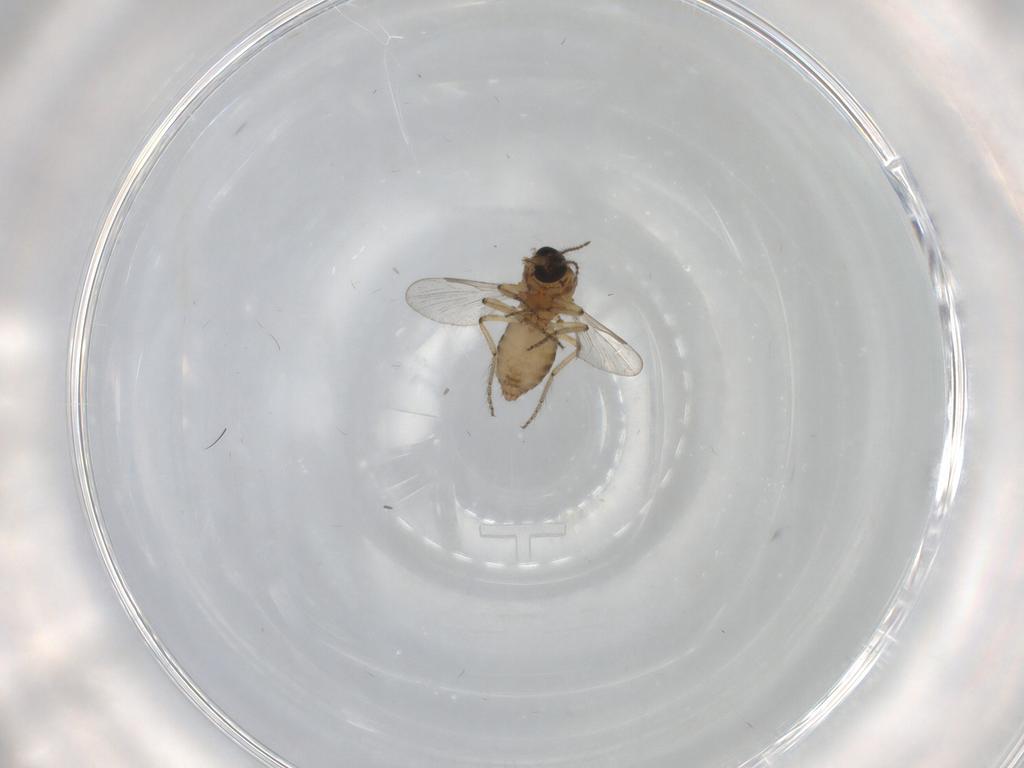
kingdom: Animalia
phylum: Arthropoda
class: Insecta
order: Diptera
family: Ceratopogonidae
